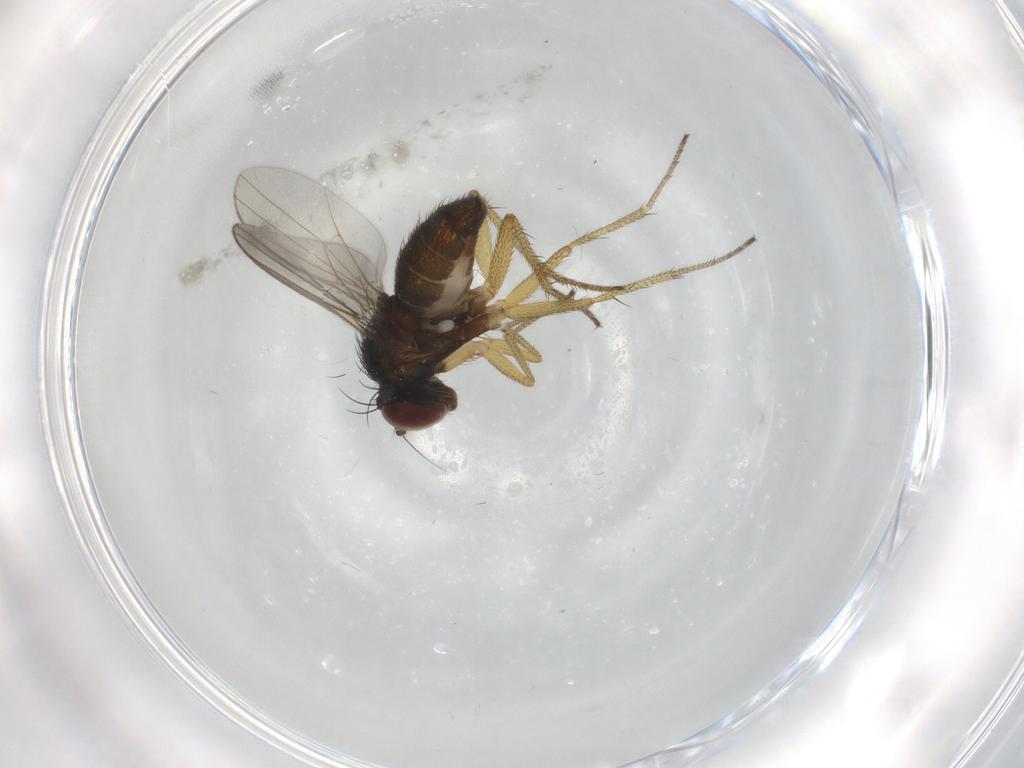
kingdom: Animalia
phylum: Arthropoda
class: Insecta
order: Diptera
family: Dolichopodidae
